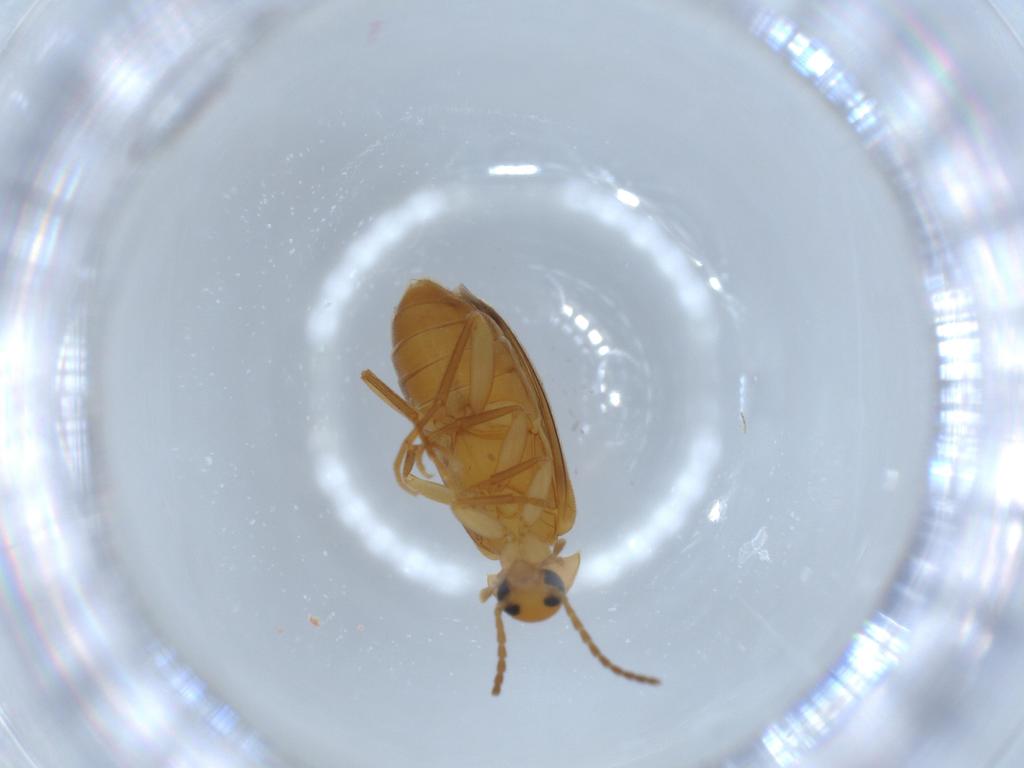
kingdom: Animalia
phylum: Arthropoda
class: Insecta
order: Coleoptera
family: Scraptiidae
